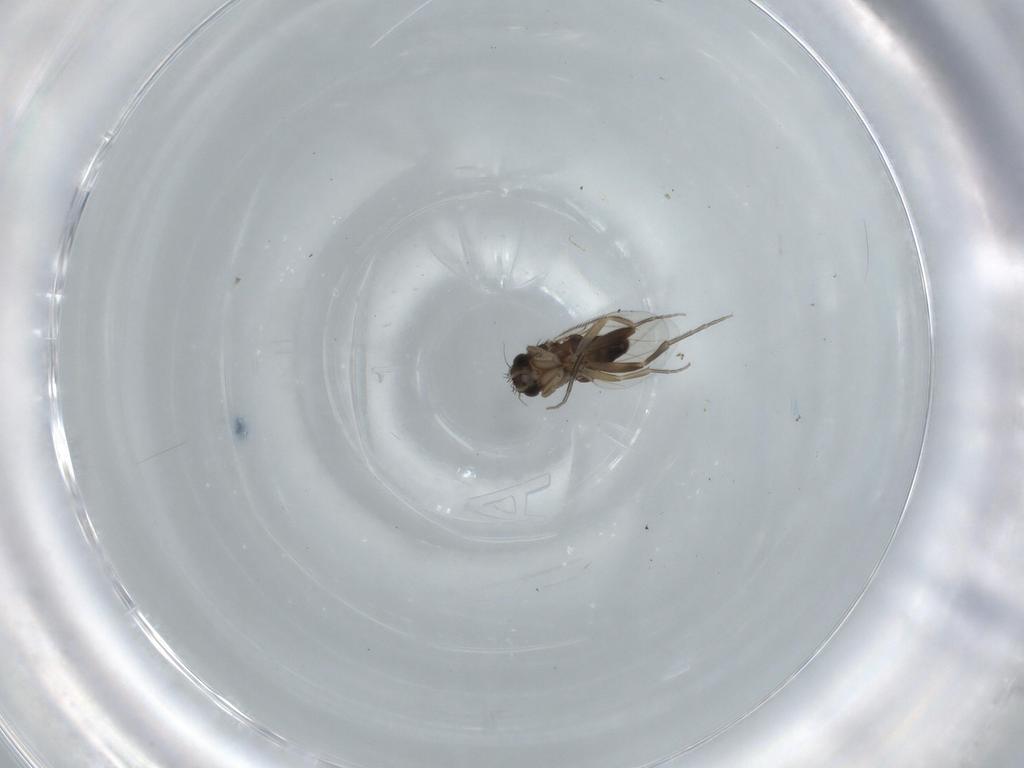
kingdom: Animalia
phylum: Arthropoda
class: Insecta
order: Diptera
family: Phoridae
